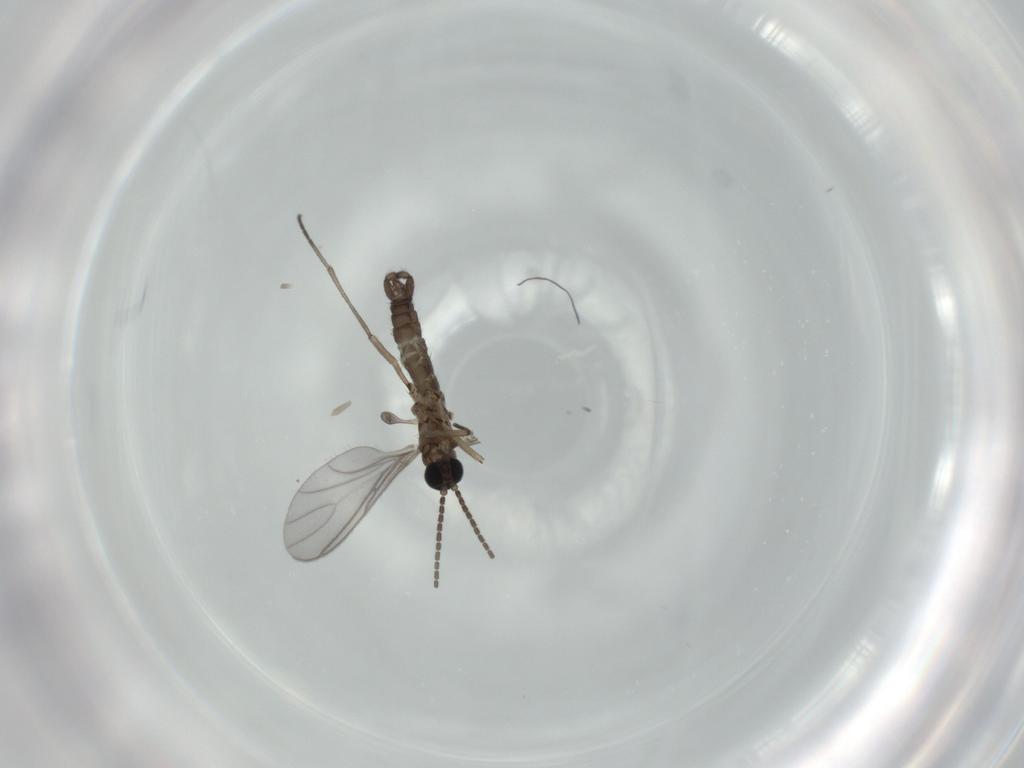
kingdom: Animalia
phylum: Arthropoda
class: Insecta
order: Diptera
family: Sciaridae
